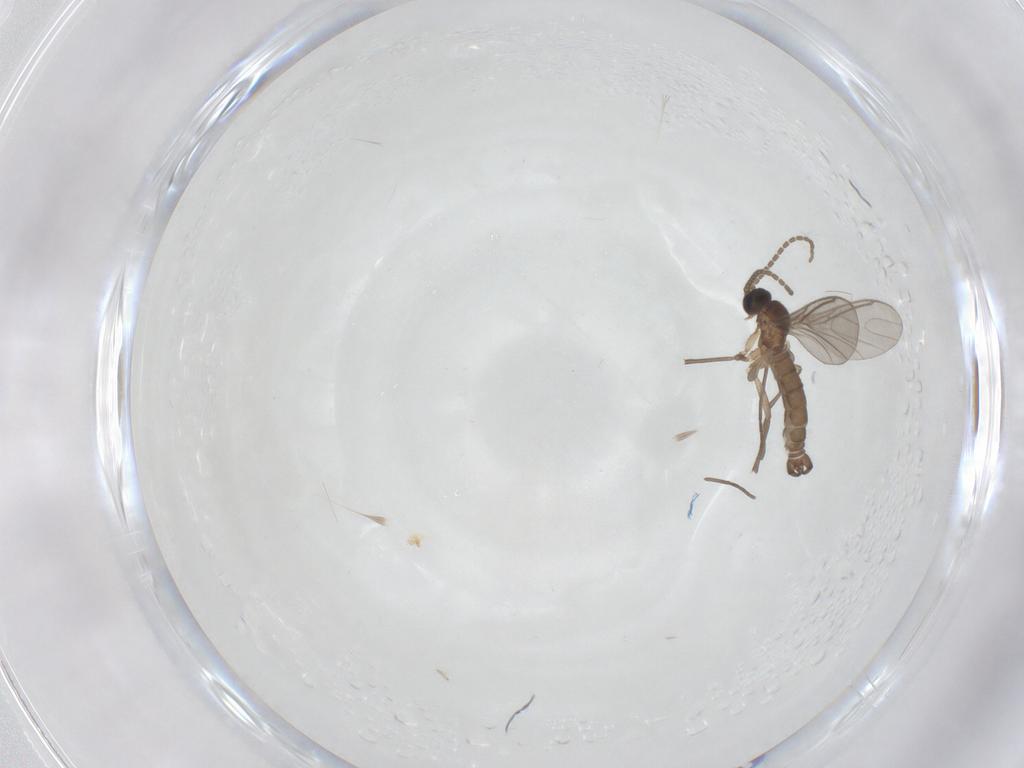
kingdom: Animalia
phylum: Arthropoda
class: Insecta
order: Diptera
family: Sciaridae
